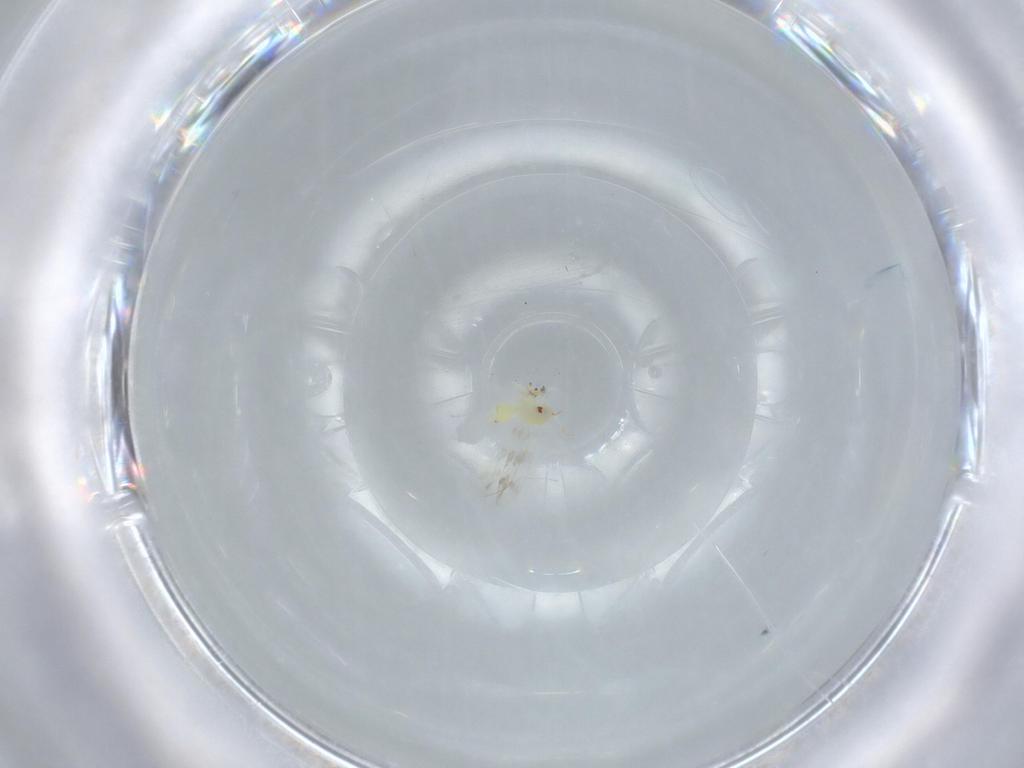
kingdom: Animalia
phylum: Arthropoda
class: Insecta
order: Hemiptera
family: Aleyrodidae
